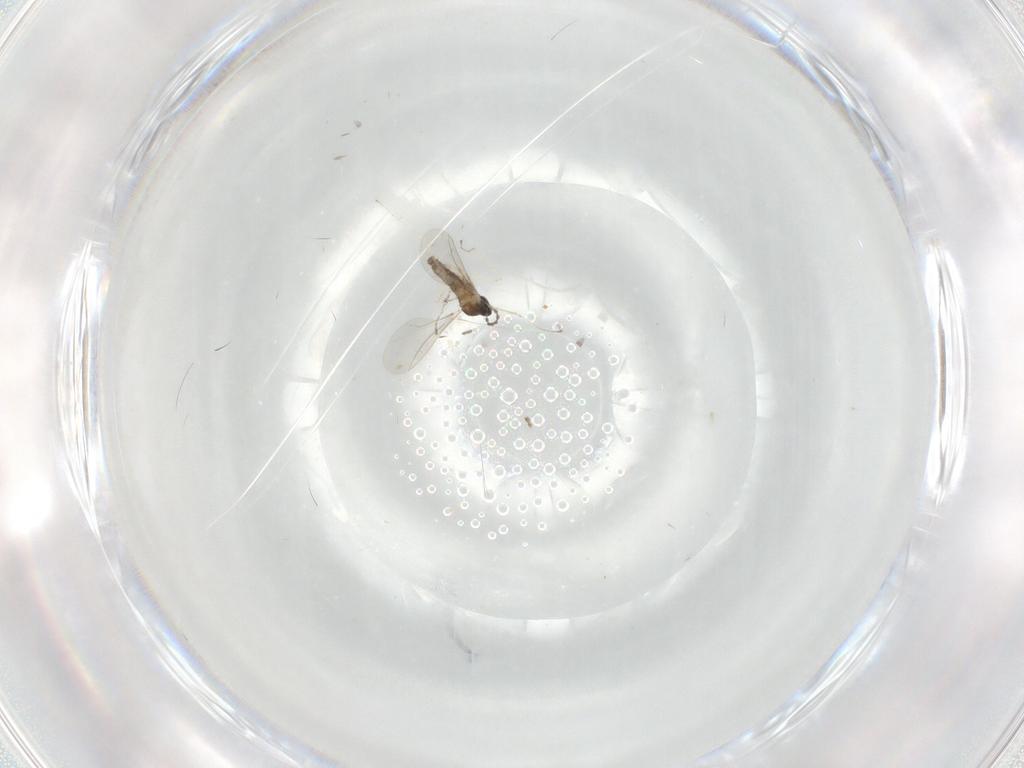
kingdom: Animalia
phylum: Arthropoda
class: Insecta
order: Diptera
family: Cecidomyiidae
